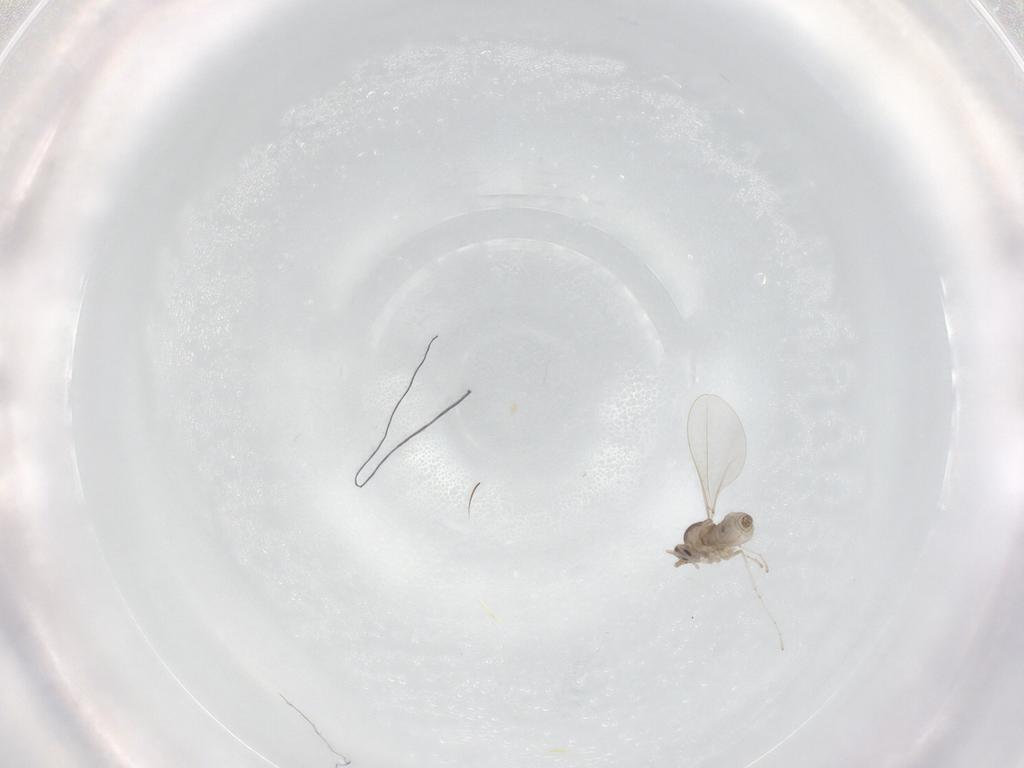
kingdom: Animalia
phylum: Arthropoda
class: Insecta
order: Diptera
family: Cecidomyiidae
